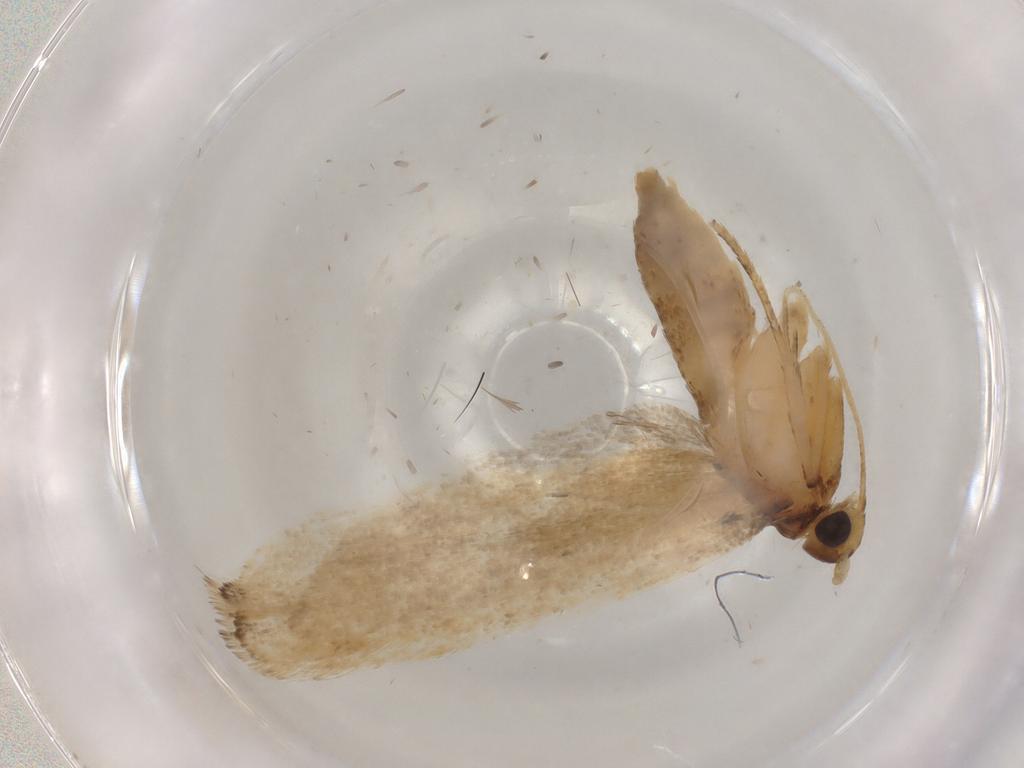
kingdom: Animalia
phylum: Arthropoda
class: Insecta
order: Lepidoptera
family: Lecithoceridae
